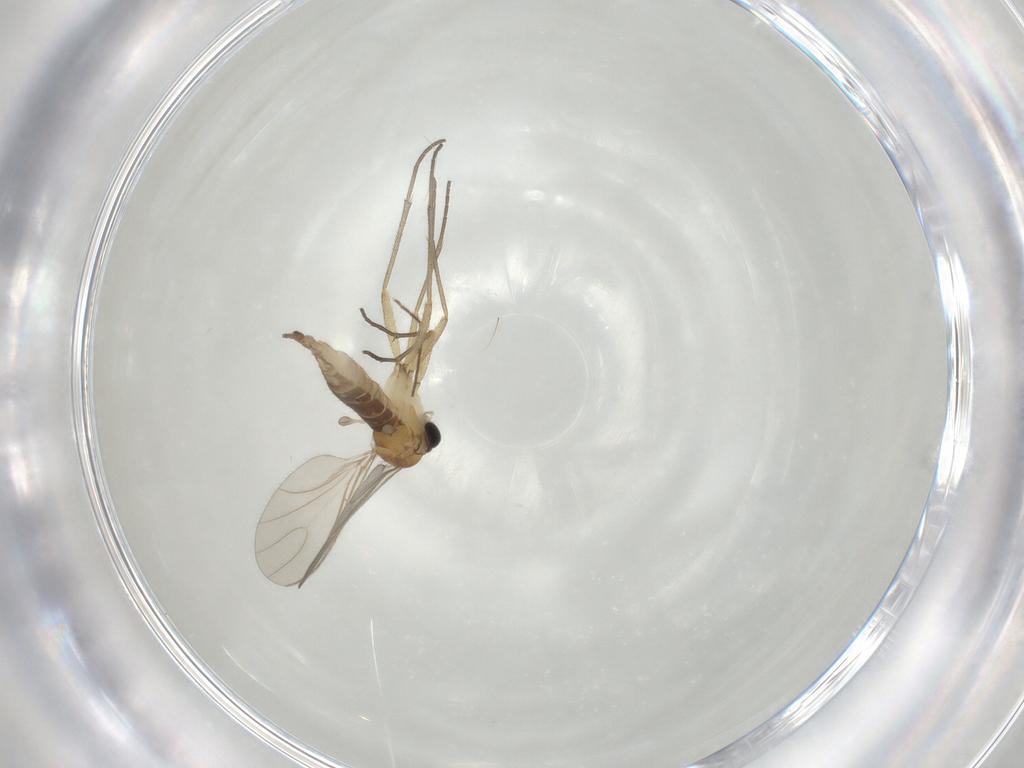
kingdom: Animalia
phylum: Arthropoda
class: Insecta
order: Diptera
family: Sciaridae
